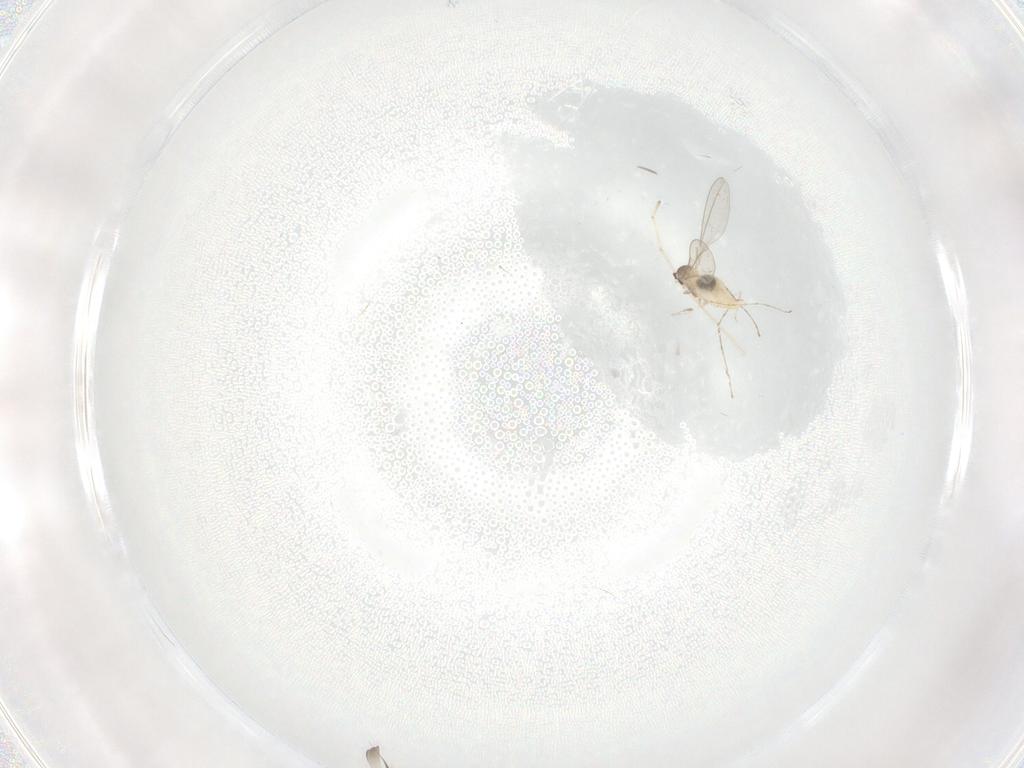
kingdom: Animalia
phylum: Arthropoda
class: Insecta
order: Diptera
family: Cecidomyiidae
